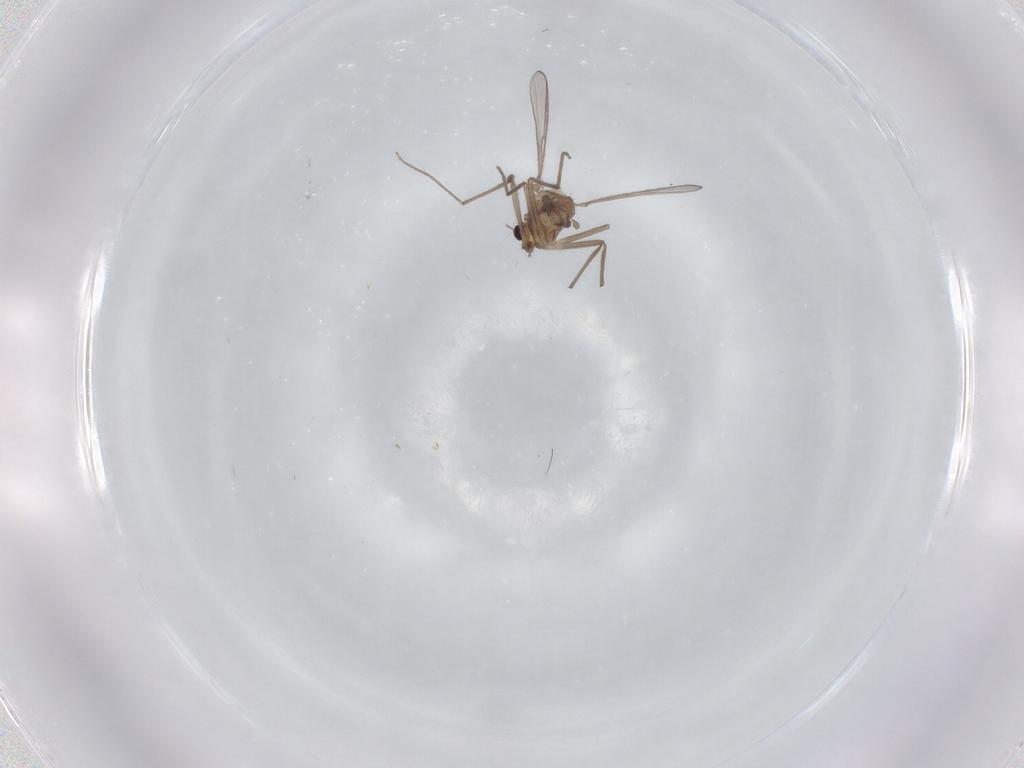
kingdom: Animalia
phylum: Arthropoda
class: Insecta
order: Diptera
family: Chironomidae
